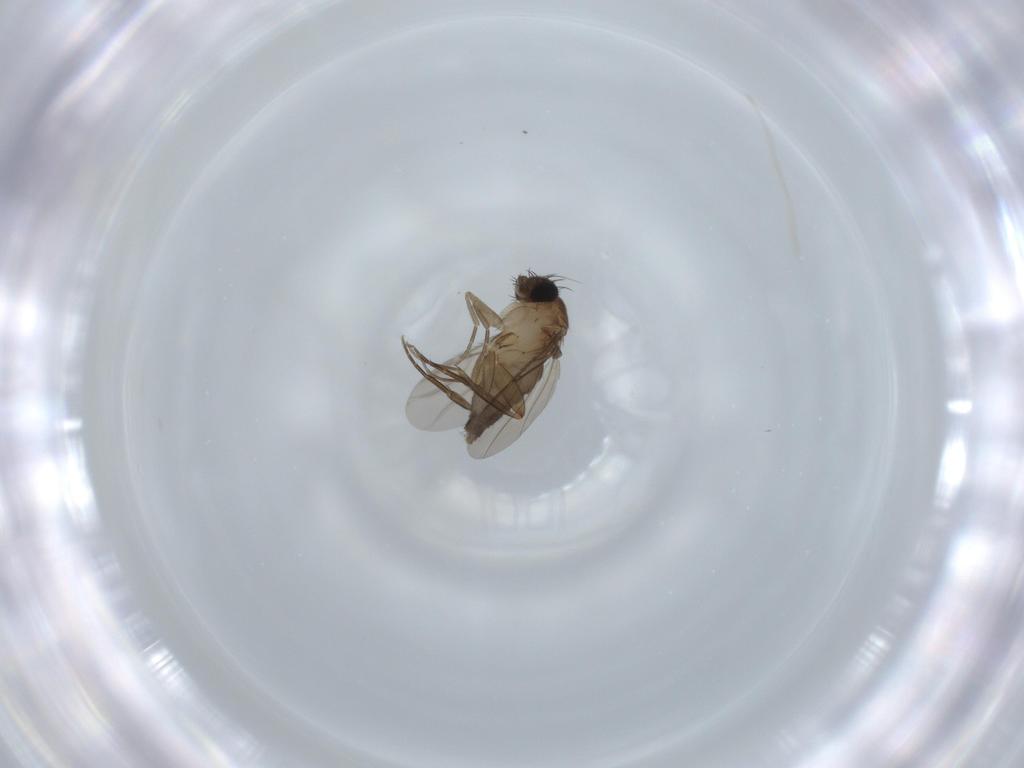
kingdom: Animalia
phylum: Arthropoda
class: Insecta
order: Diptera
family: Phoridae
